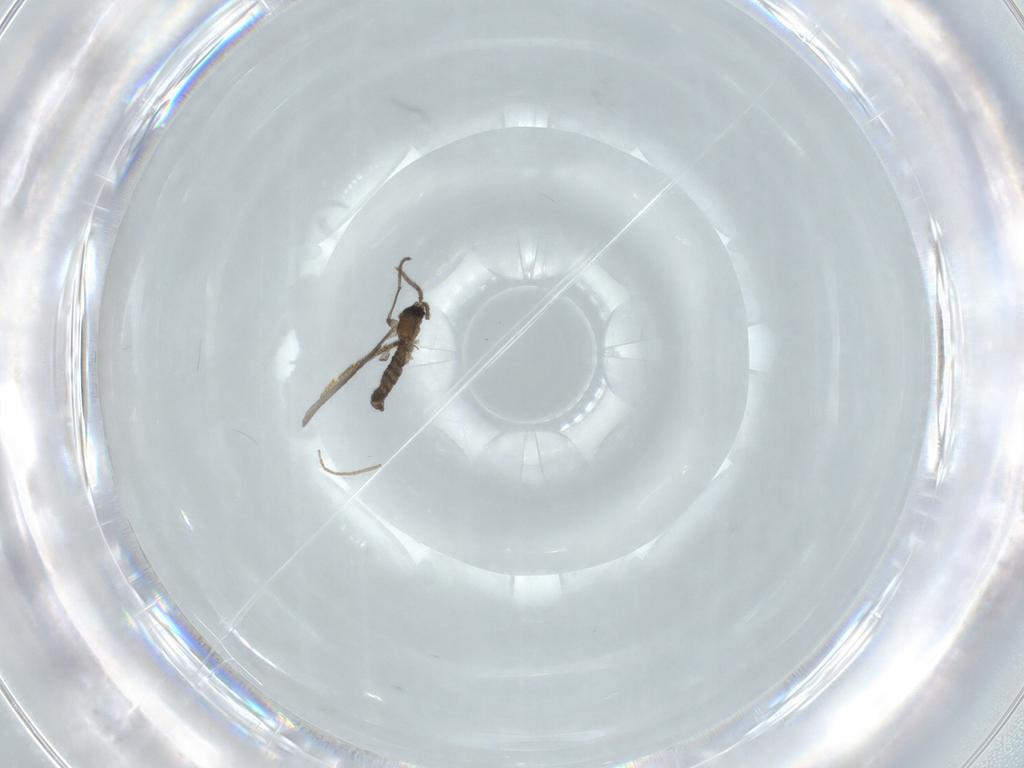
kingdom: Animalia
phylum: Arthropoda
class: Insecta
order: Diptera
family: Sciaridae
